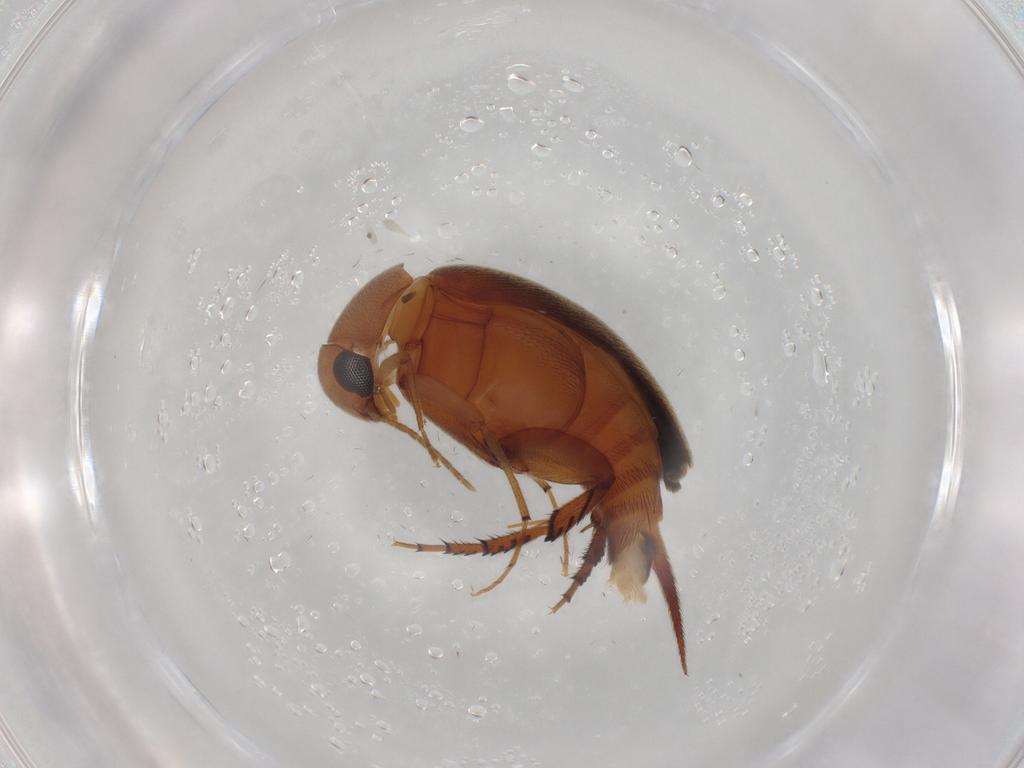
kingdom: Animalia
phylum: Arthropoda
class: Insecta
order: Coleoptera
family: Mordellidae
